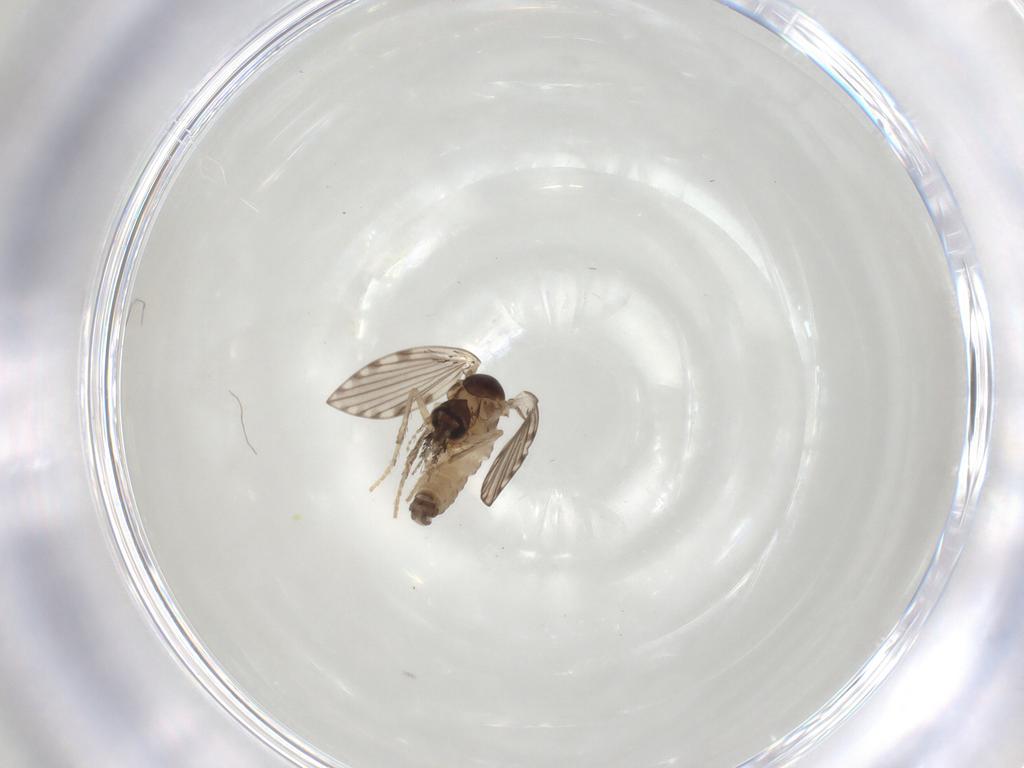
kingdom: Animalia
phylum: Arthropoda
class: Insecta
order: Diptera
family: Psychodidae
